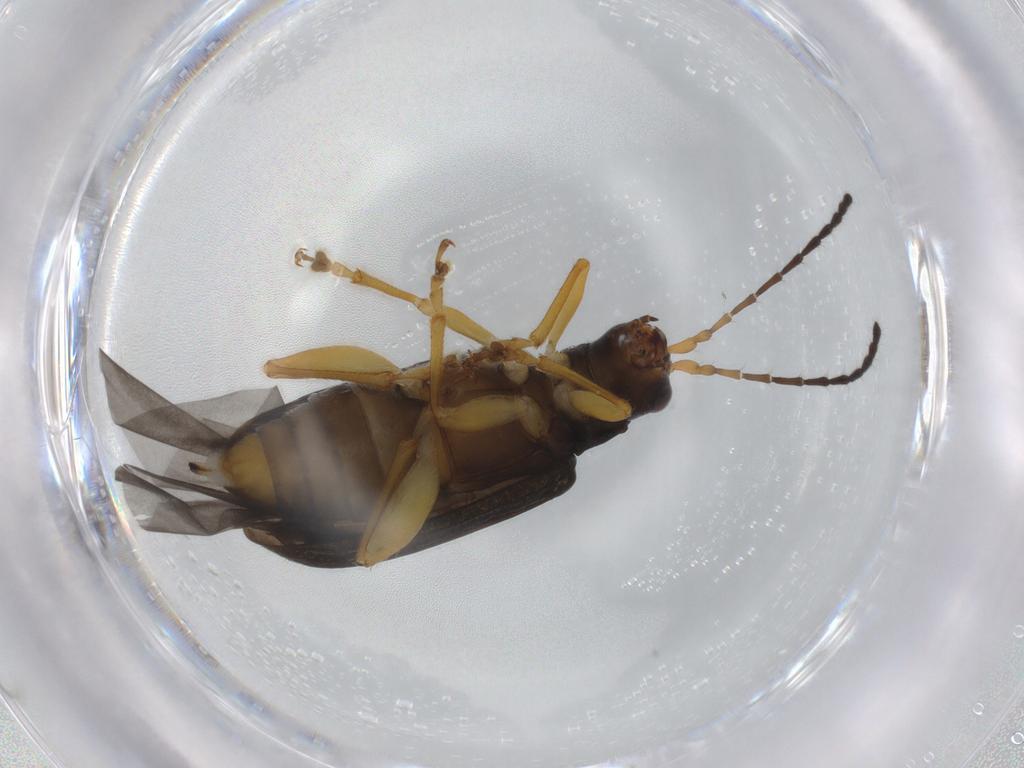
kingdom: Animalia
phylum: Arthropoda
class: Insecta
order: Coleoptera
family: Chrysomelidae
